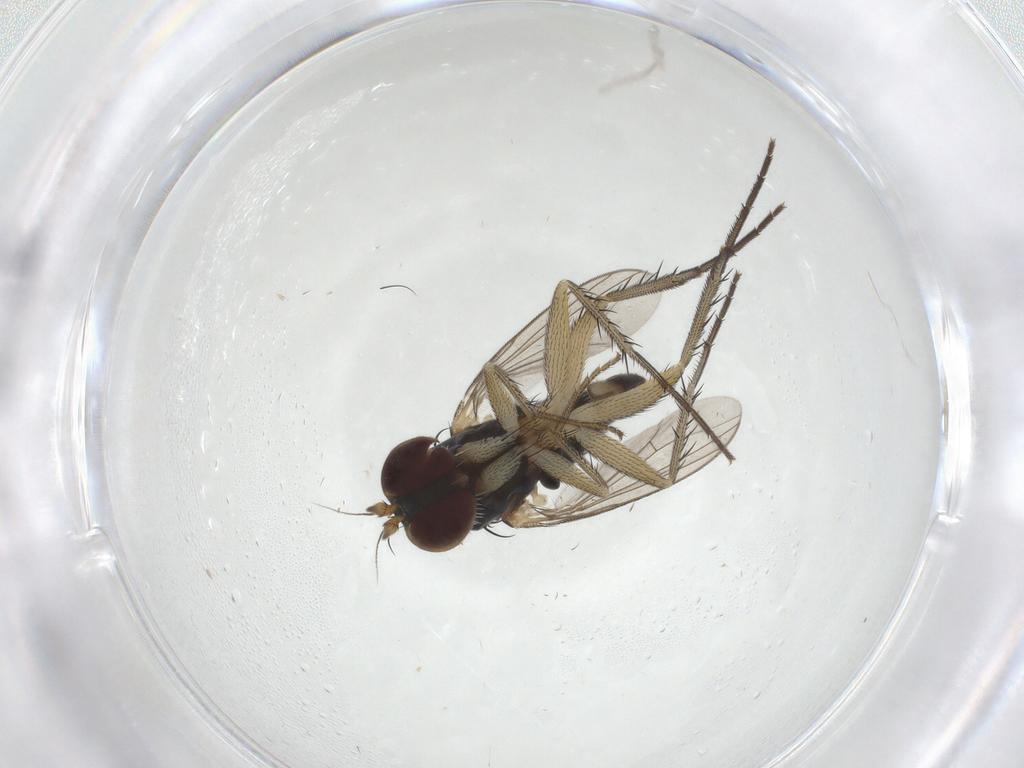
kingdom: Animalia
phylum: Arthropoda
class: Insecta
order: Diptera
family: Dolichopodidae
